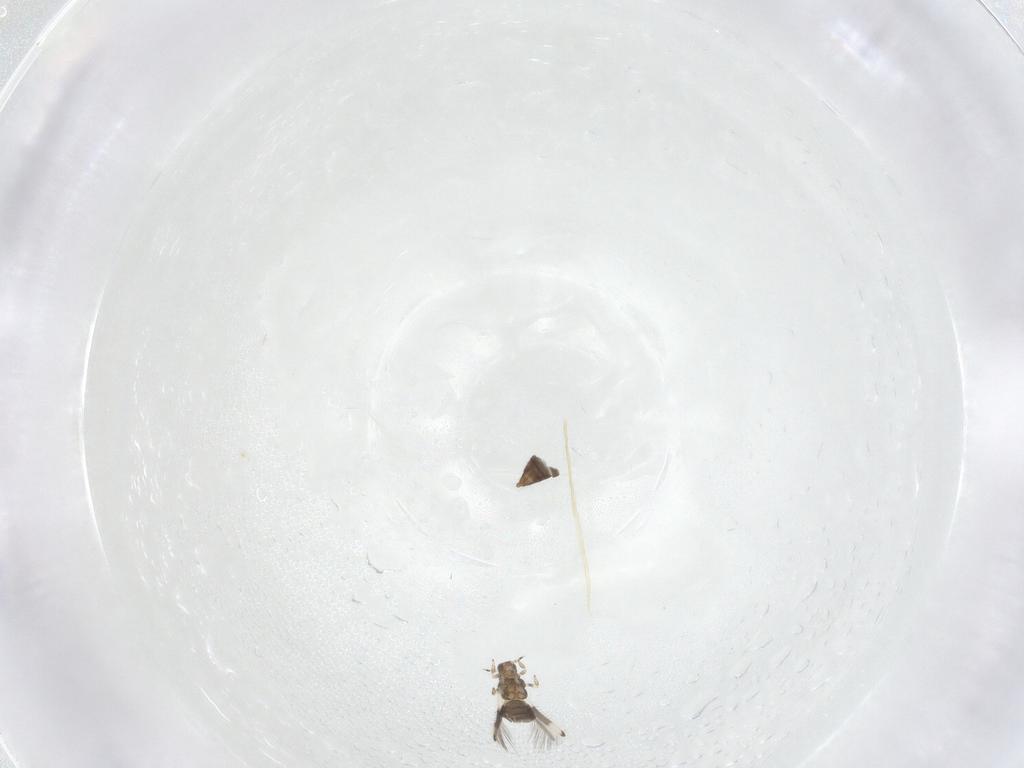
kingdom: Animalia
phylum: Arthropoda
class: Insecta
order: Thysanoptera
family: Thripidae
